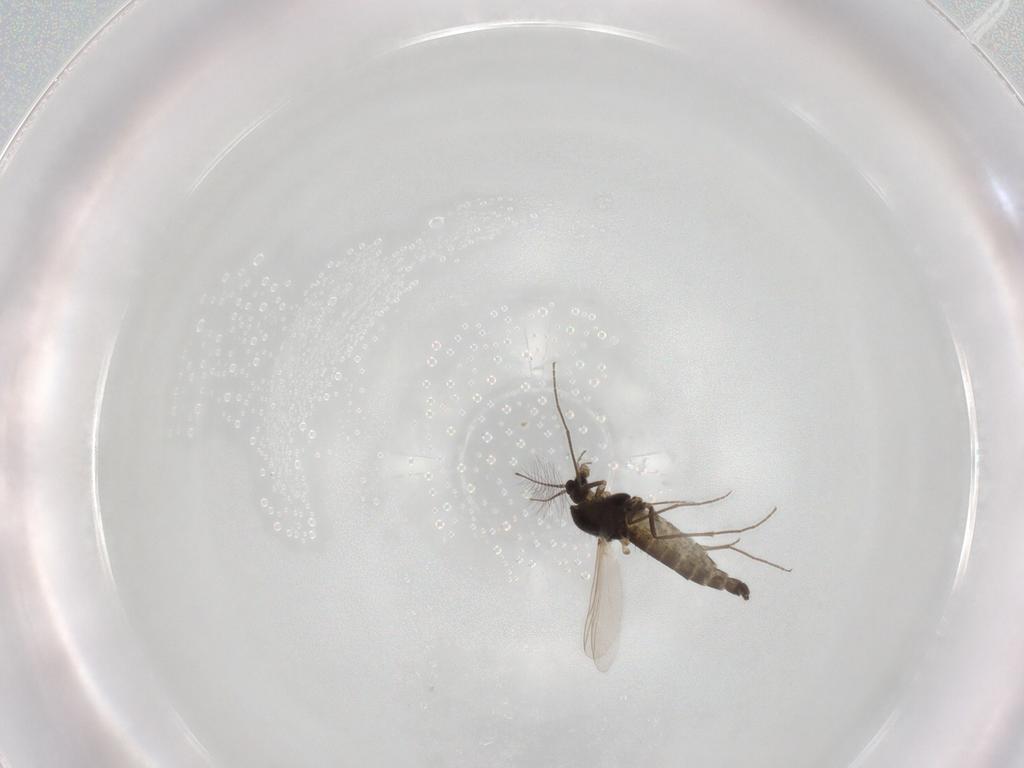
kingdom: Animalia
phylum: Arthropoda
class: Insecta
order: Diptera
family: Chironomidae
